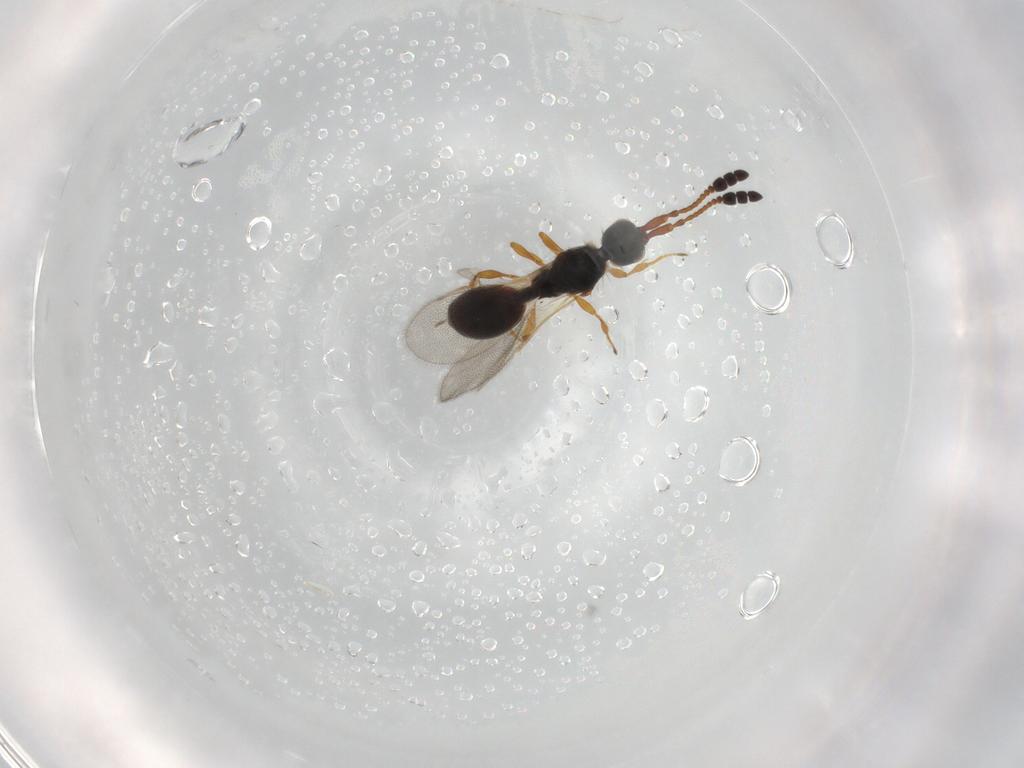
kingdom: Animalia
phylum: Arthropoda
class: Insecta
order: Hymenoptera
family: Diapriidae
